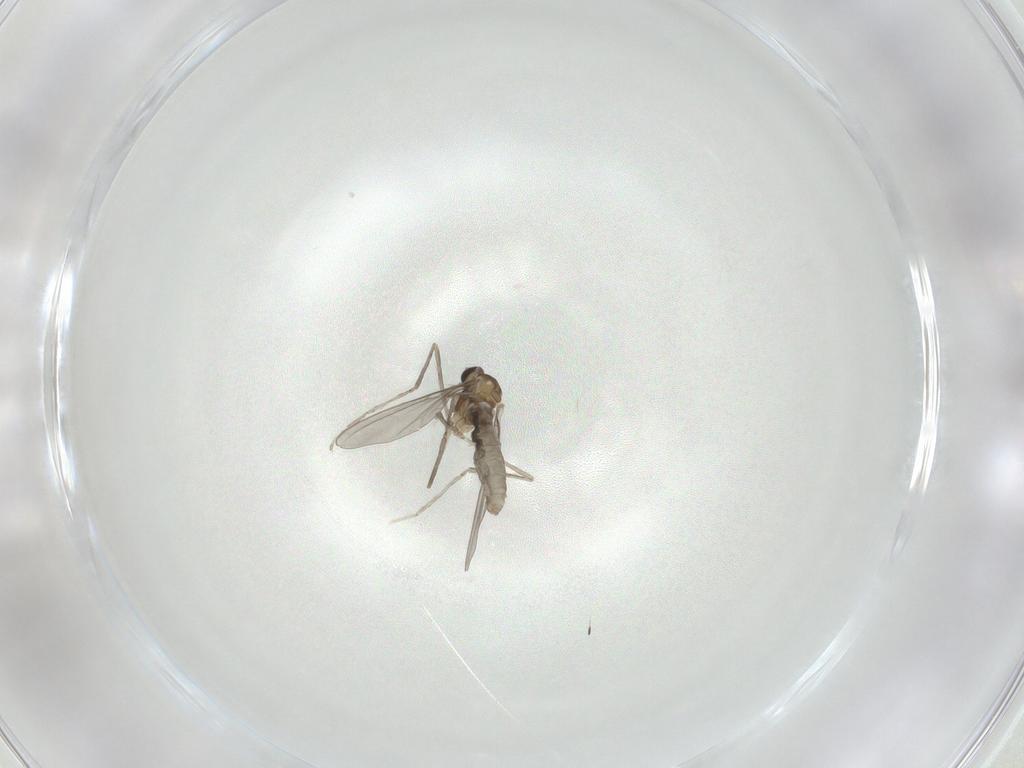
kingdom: Animalia
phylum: Arthropoda
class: Insecta
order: Diptera
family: Cecidomyiidae
